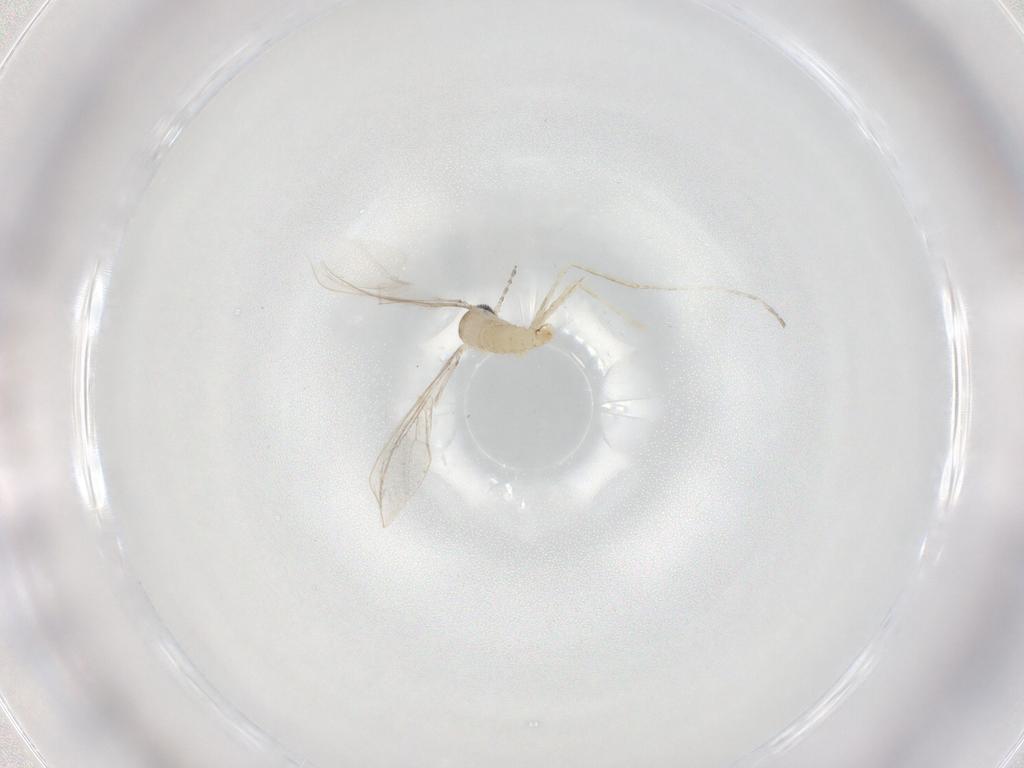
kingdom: Animalia
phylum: Arthropoda
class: Insecta
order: Diptera
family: Cecidomyiidae
